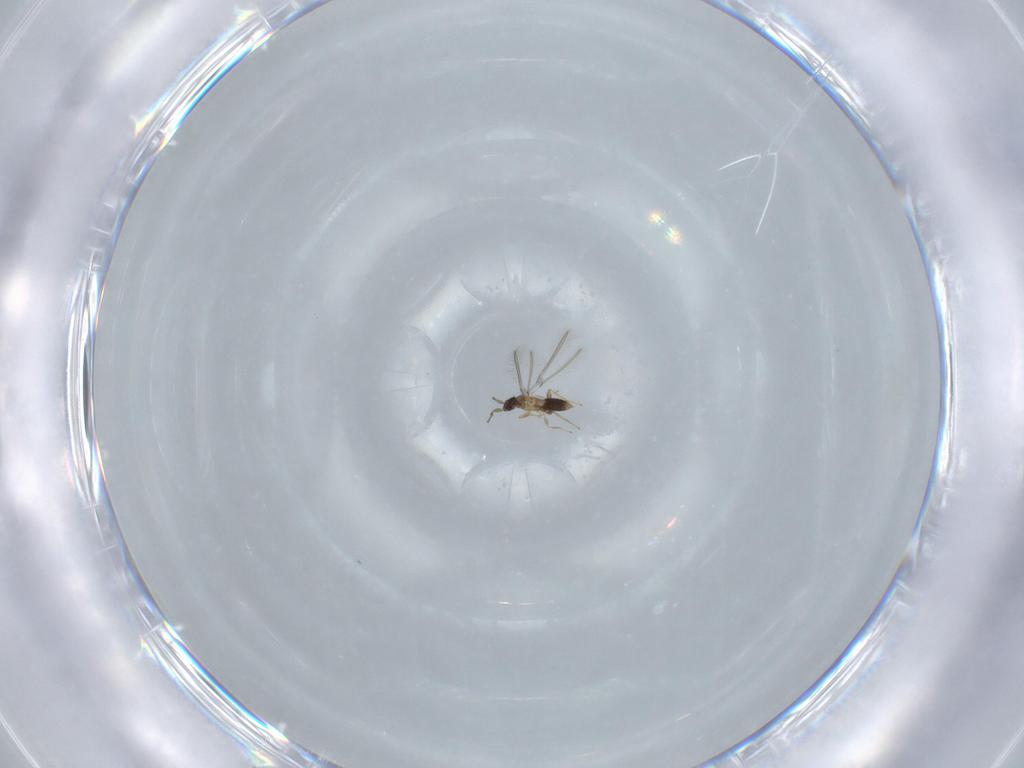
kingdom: Animalia
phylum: Arthropoda
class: Insecta
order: Hymenoptera
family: Mymaridae
